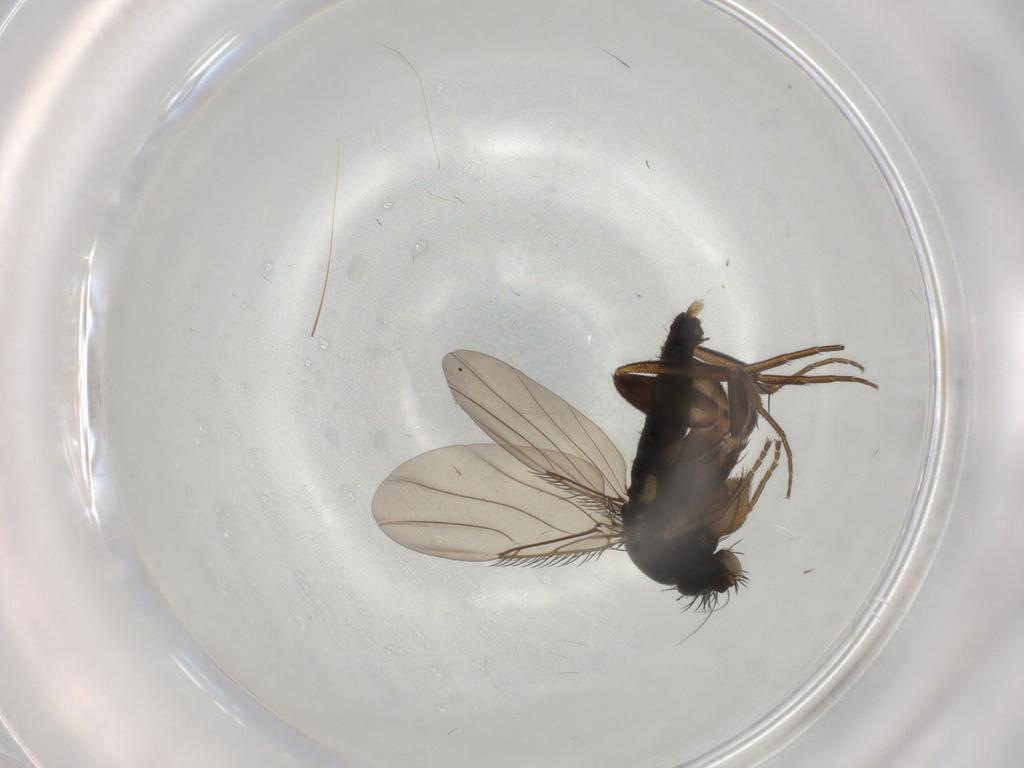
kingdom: Animalia
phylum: Arthropoda
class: Insecta
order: Diptera
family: Phoridae
